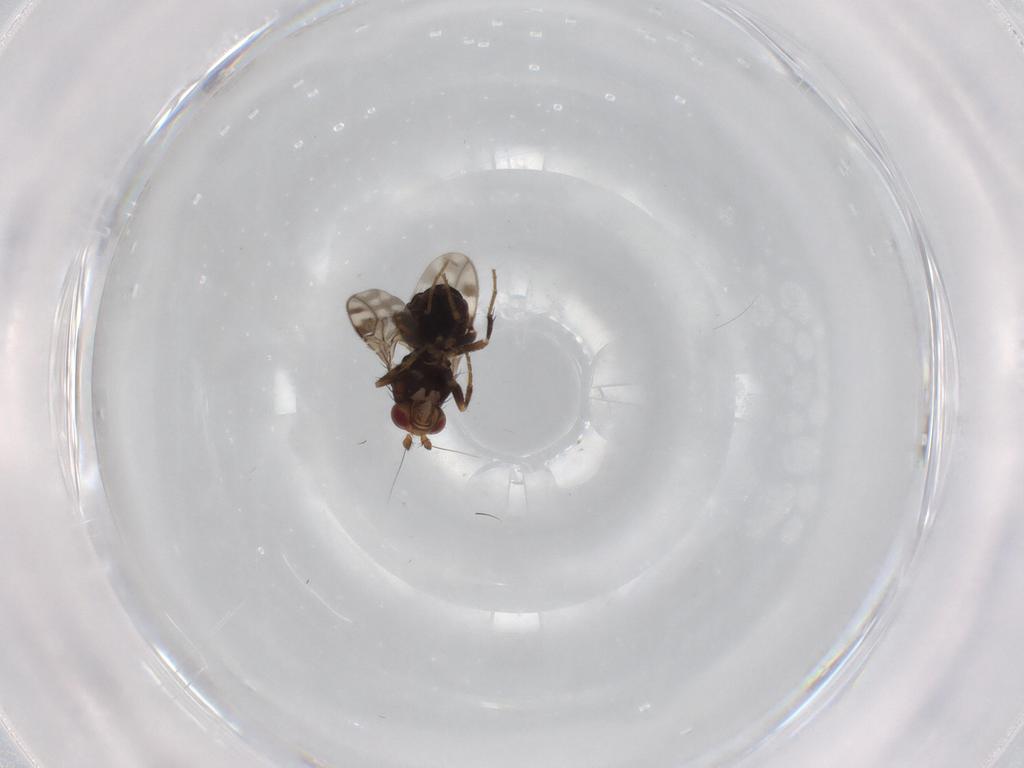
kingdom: Animalia
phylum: Arthropoda
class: Insecta
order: Diptera
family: Sphaeroceridae
